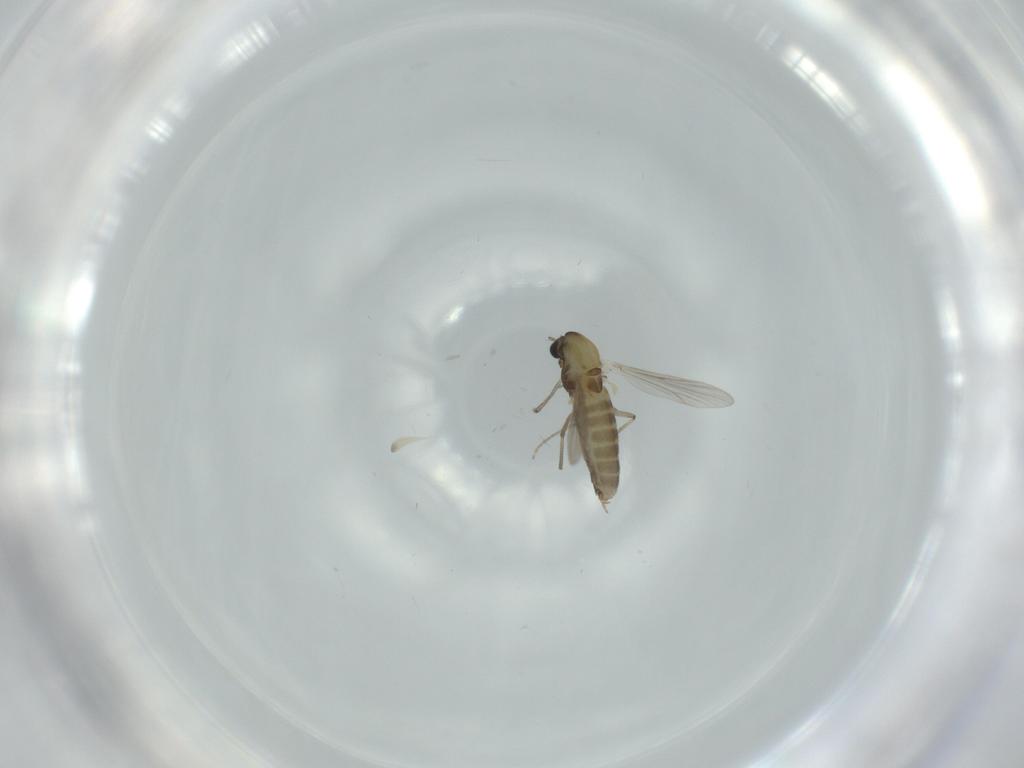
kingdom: Animalia
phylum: Arthropoda
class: Insecta
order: Diptera
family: Chironomidae
